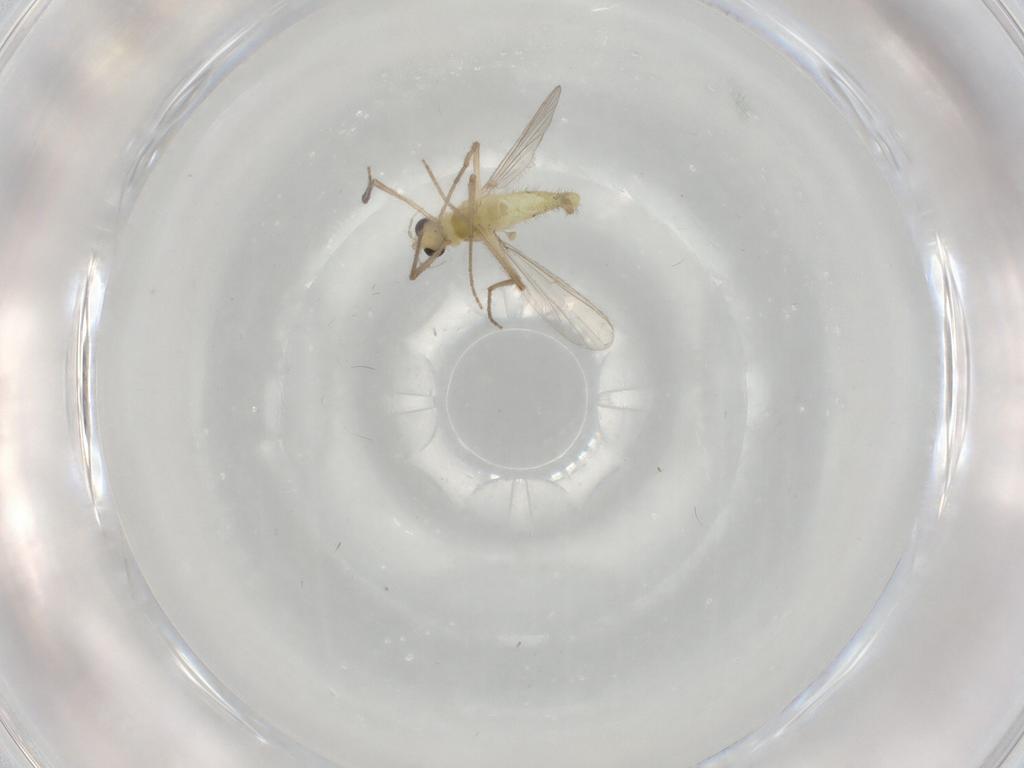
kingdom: Animalia
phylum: Arthropoda
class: Insecta
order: Diptera
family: Chironomidae
